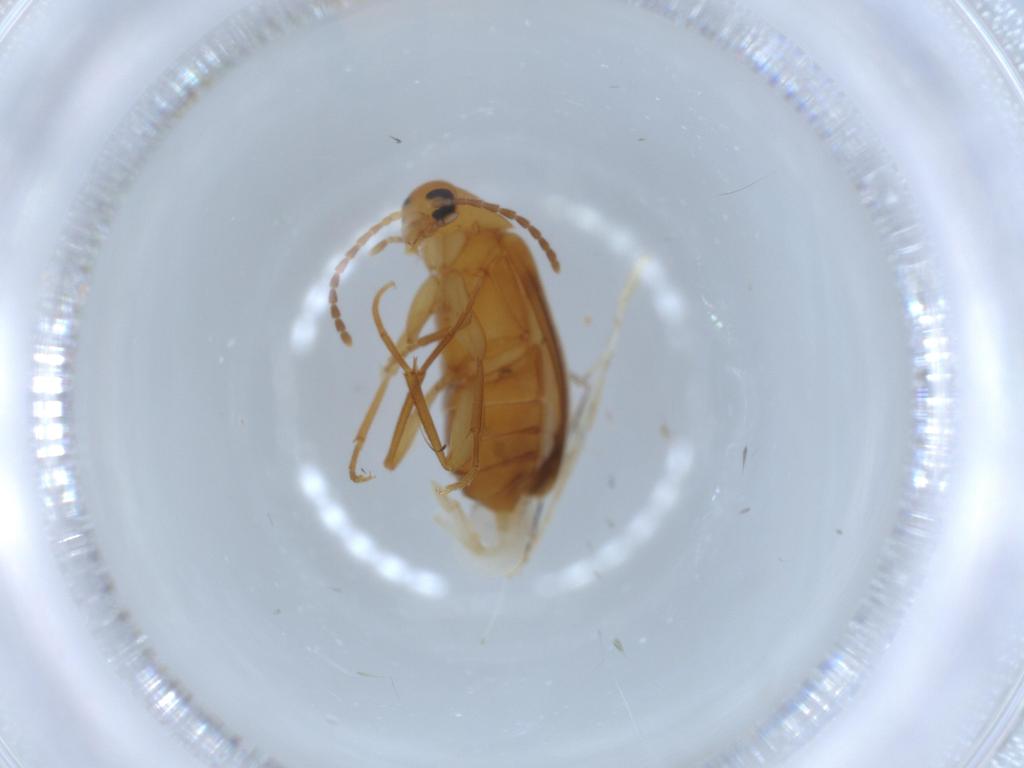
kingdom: Animalia
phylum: Arthropoda
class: Insecta
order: Coleoptera
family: Scraptiidae
